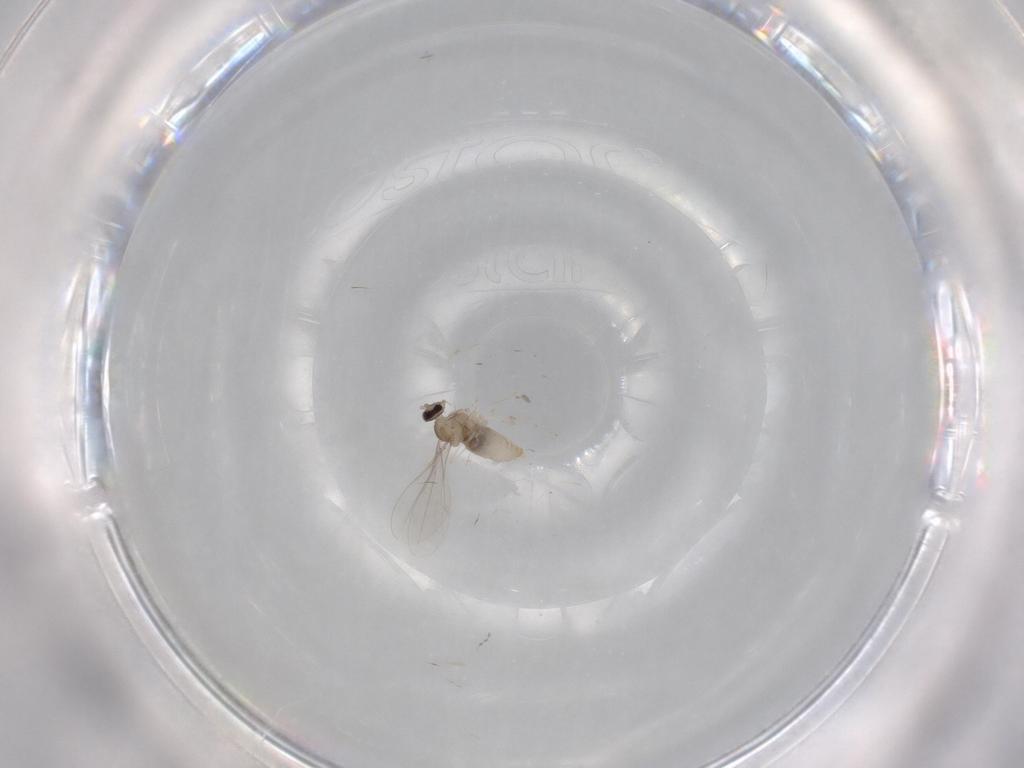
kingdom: Animalia
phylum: Arthropoda
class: Insecta
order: Diptera
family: Cecidomyiidae
